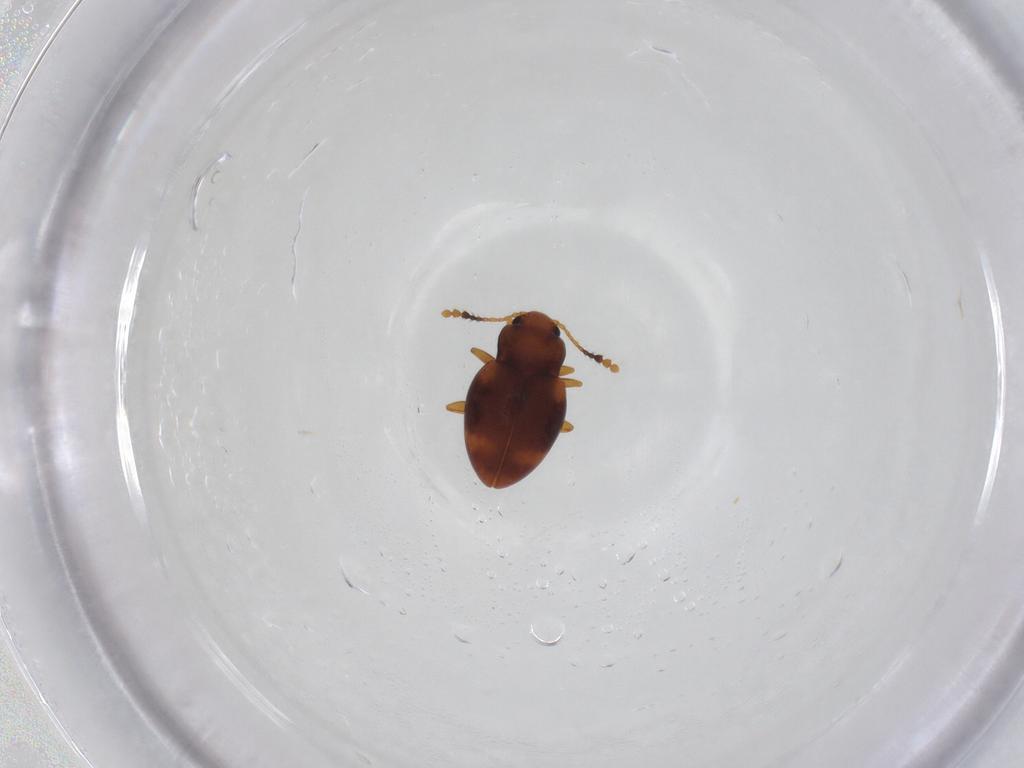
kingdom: Animalia
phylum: Arthropoda
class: Insecta
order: Coleoptera
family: Erotylidae
